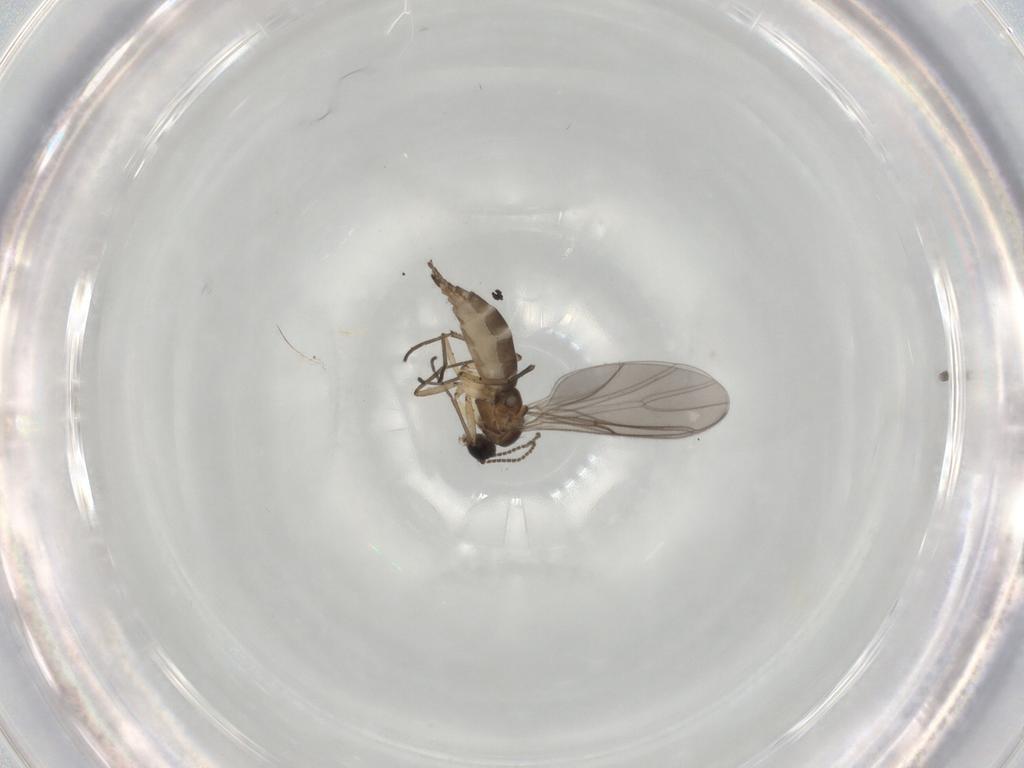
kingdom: Animalia
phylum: Arthropoda
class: Insecta
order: Diptera
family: Sciaridae
